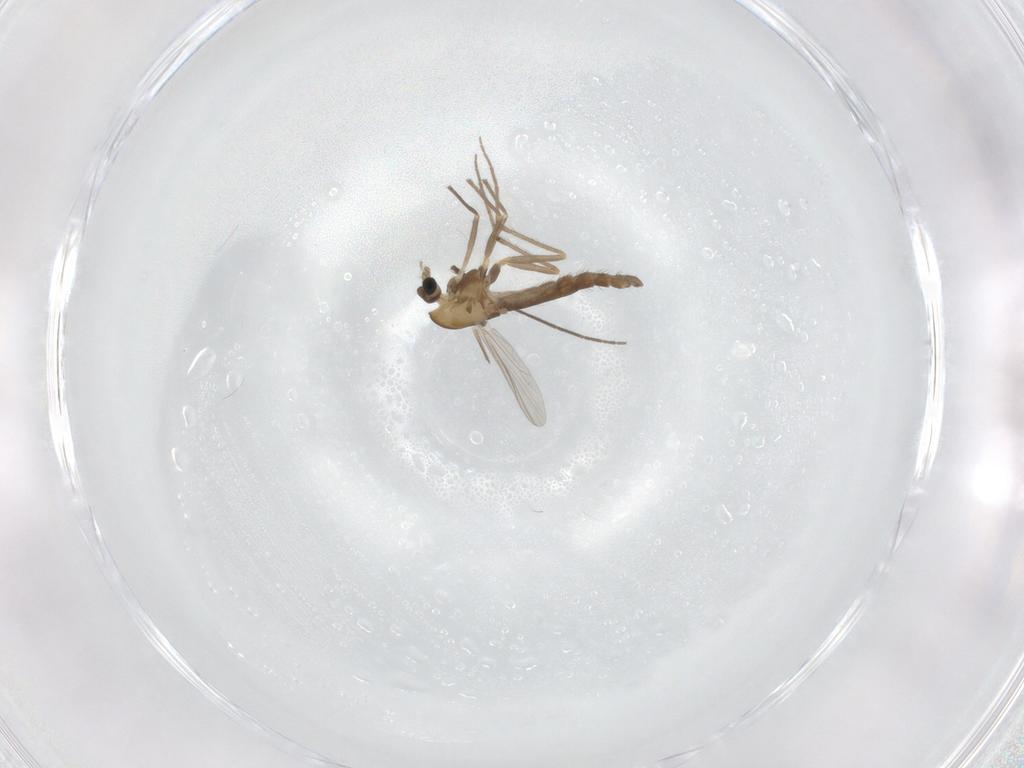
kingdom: Animalia
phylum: Arthropoda
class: Insecta
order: Diptera
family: Chironomidae
